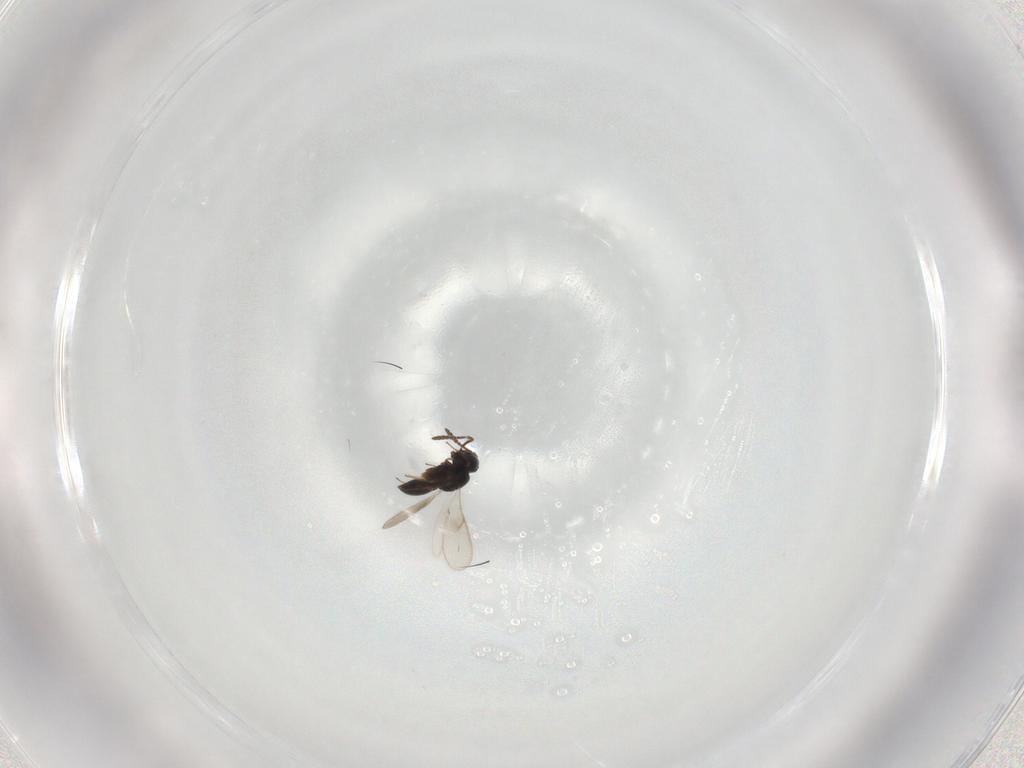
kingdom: Animalia
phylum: Arthropoda
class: Insecta
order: Hymenoptera
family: Scelionidae
